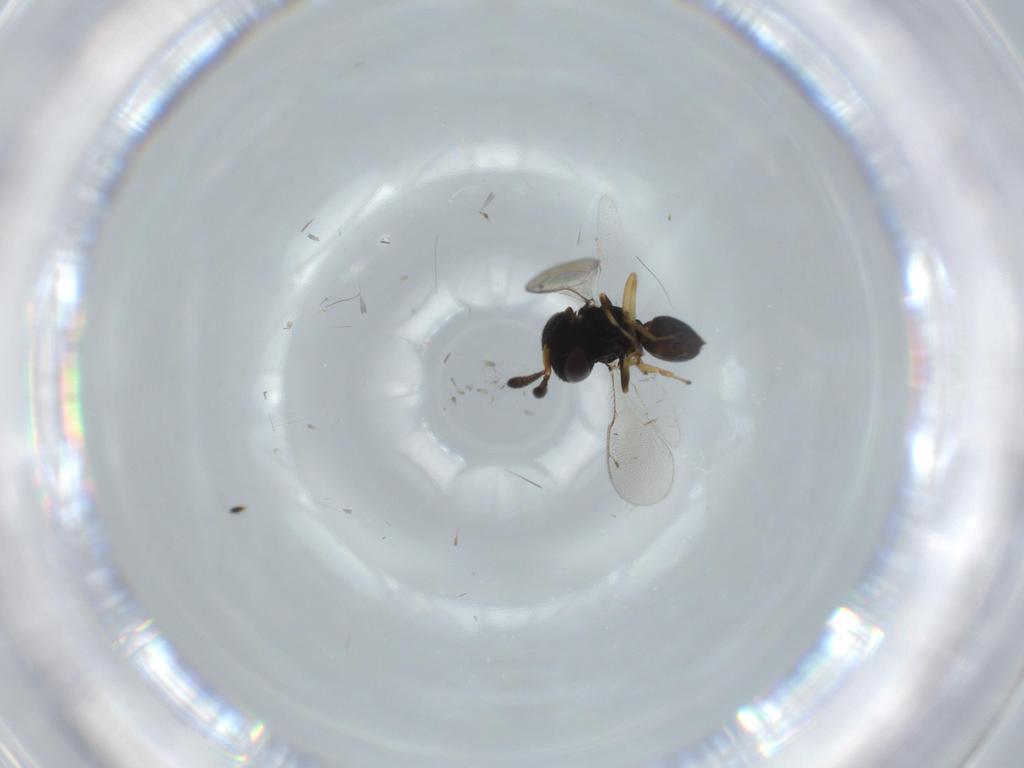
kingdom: Animalia
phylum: Arthropoda
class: Insecta
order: Hymenoptera
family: Pteromalidae
